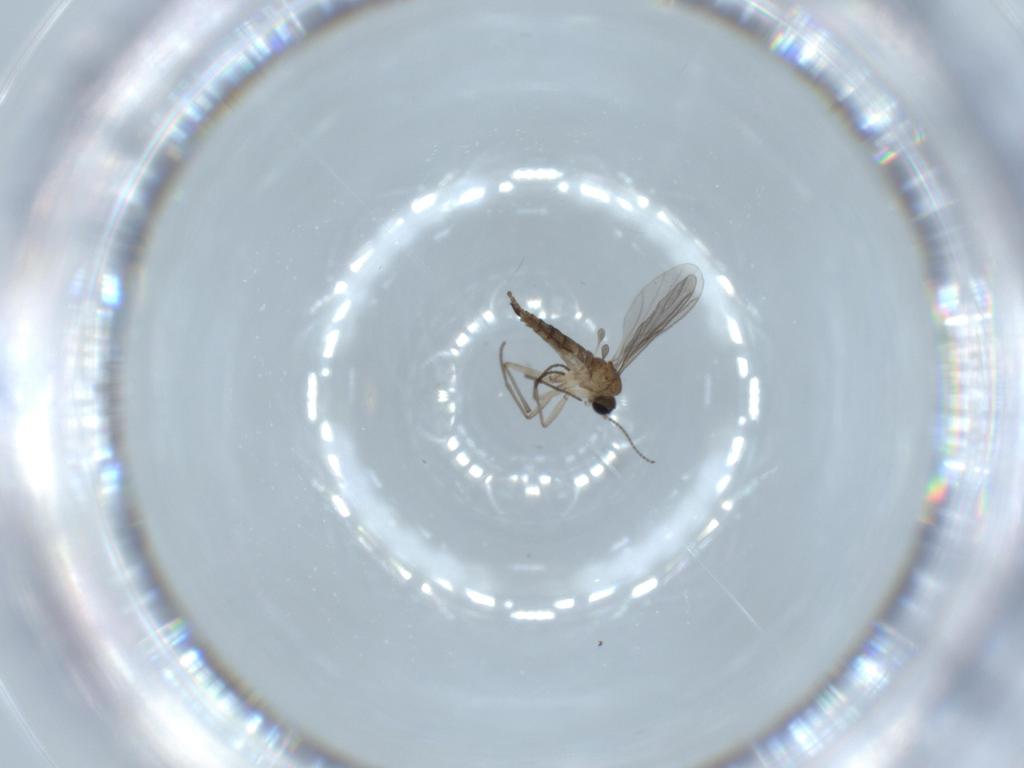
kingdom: Animalia
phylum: Arthropoda
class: Insecta
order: Diptera
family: Sciaridae
